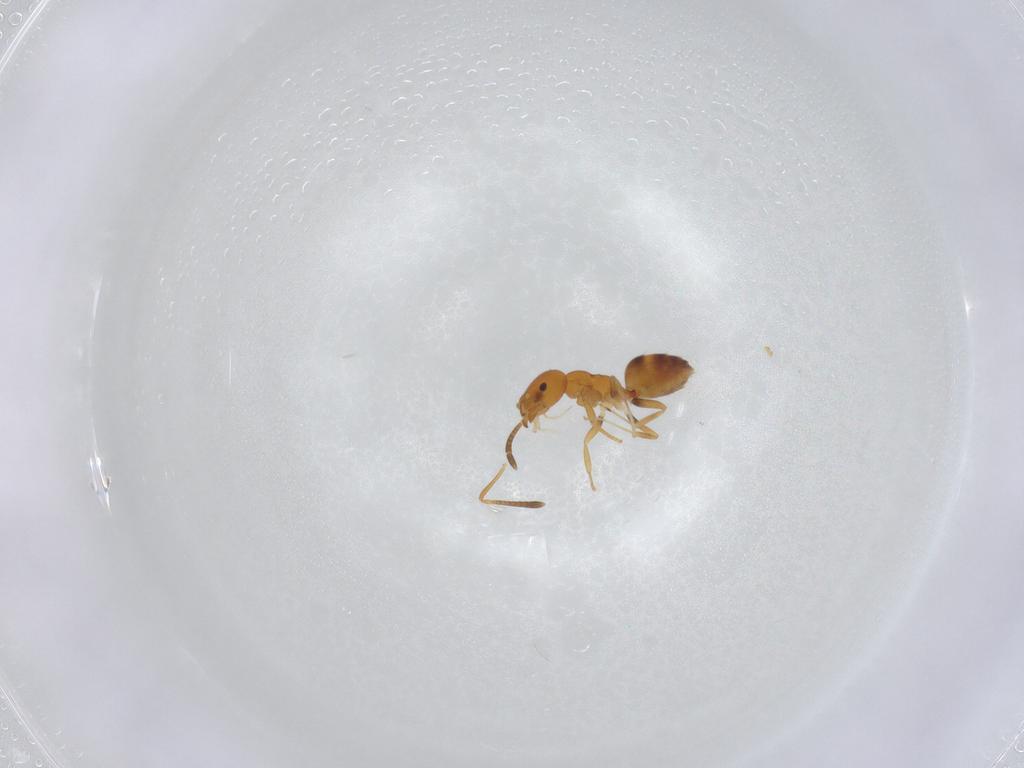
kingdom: Animalia
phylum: Arthropoda
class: Insecta
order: Hymenoptera
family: Formicidae
